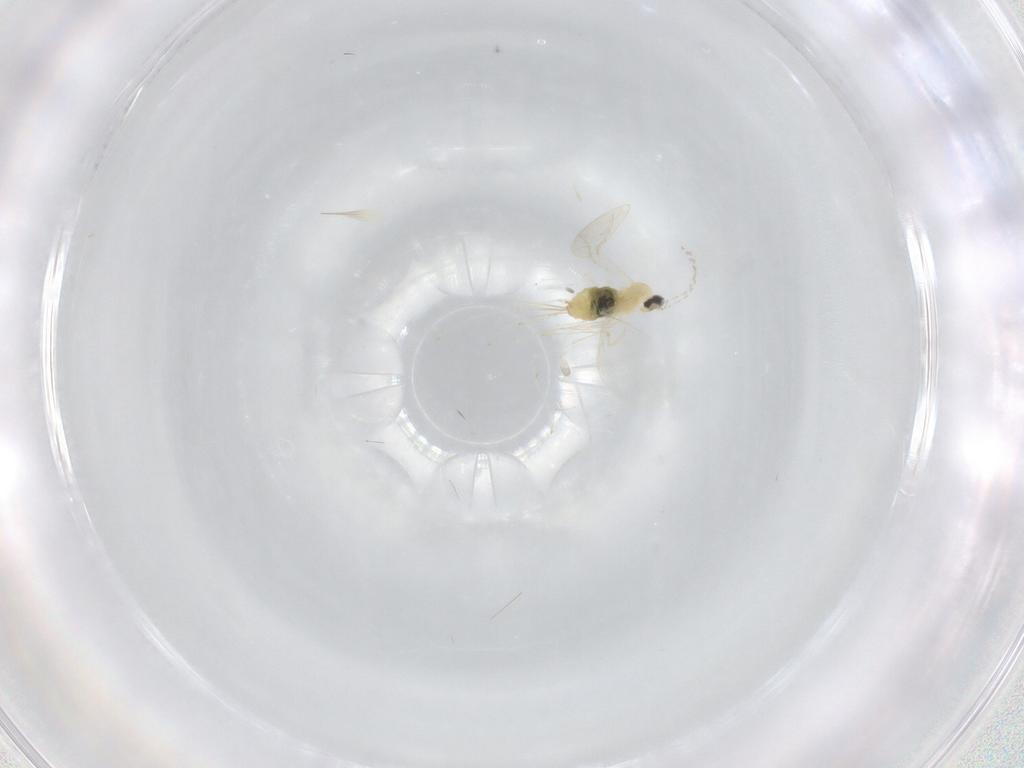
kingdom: Animalia
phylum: Arthropoda
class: Insecta
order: Diptera
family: Cecidomyiidae
